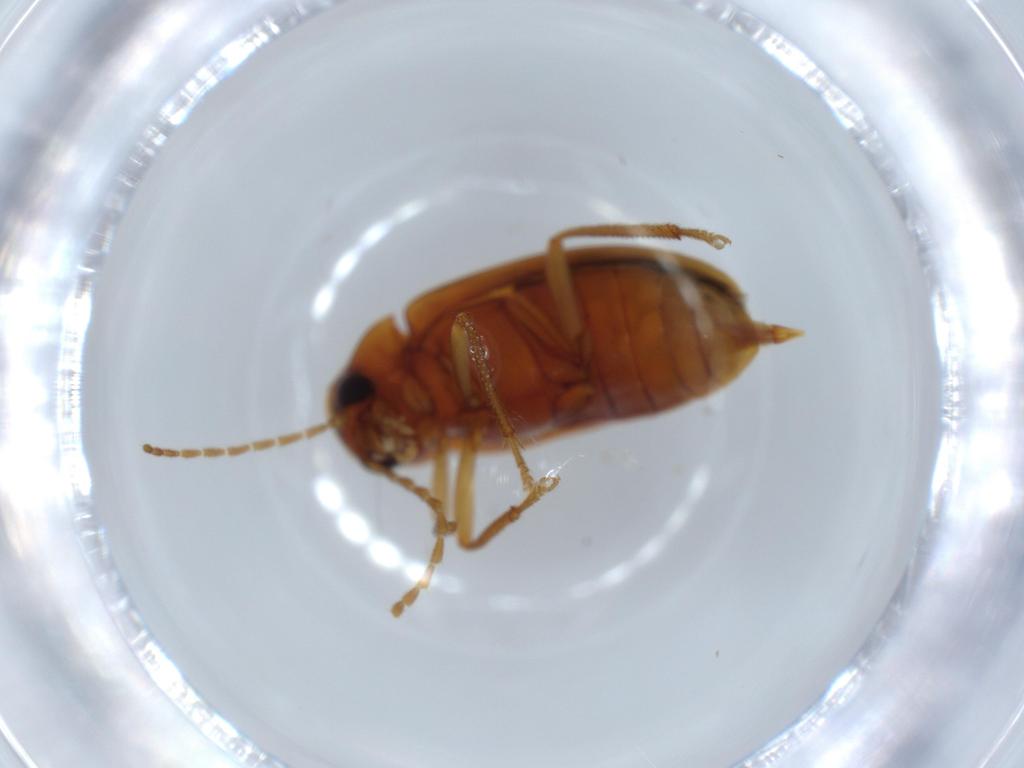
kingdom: Animalia
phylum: Arthropoda
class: Insecta
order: Coleoptera
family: Ptilodactylidae
